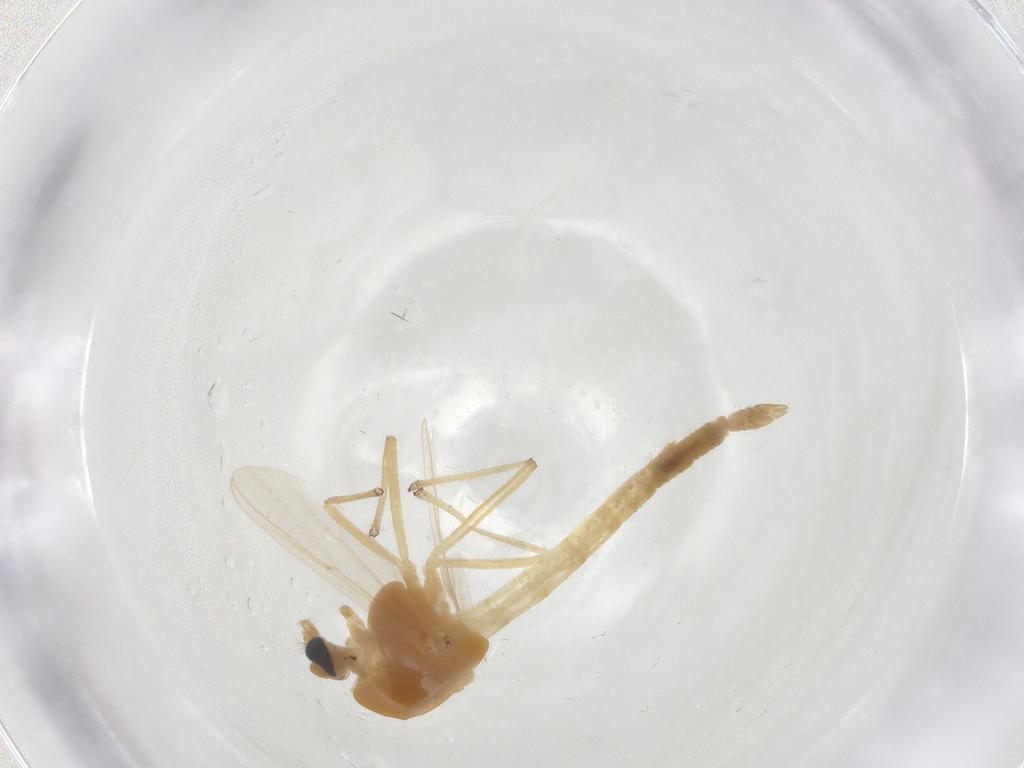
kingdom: Animalia
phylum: Arthropoda
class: Insecta
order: Diptera
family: Chironomidae
